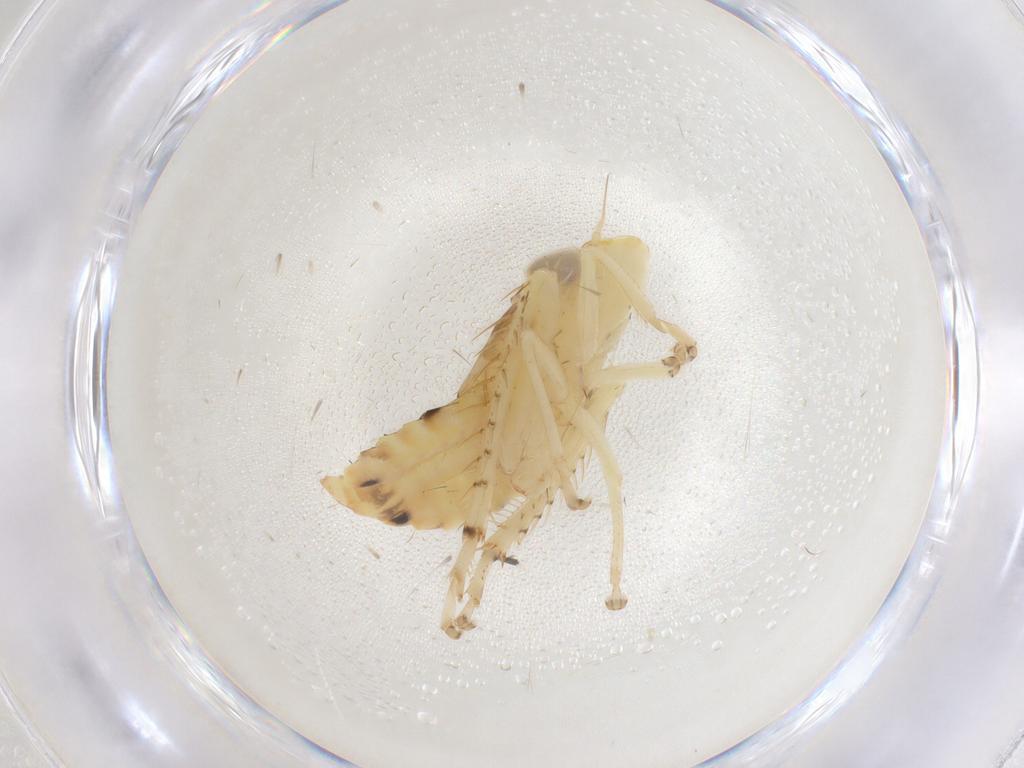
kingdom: Animalia
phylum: Arthropoda
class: Insecta
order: Hemiptera
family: Cicadellidae
